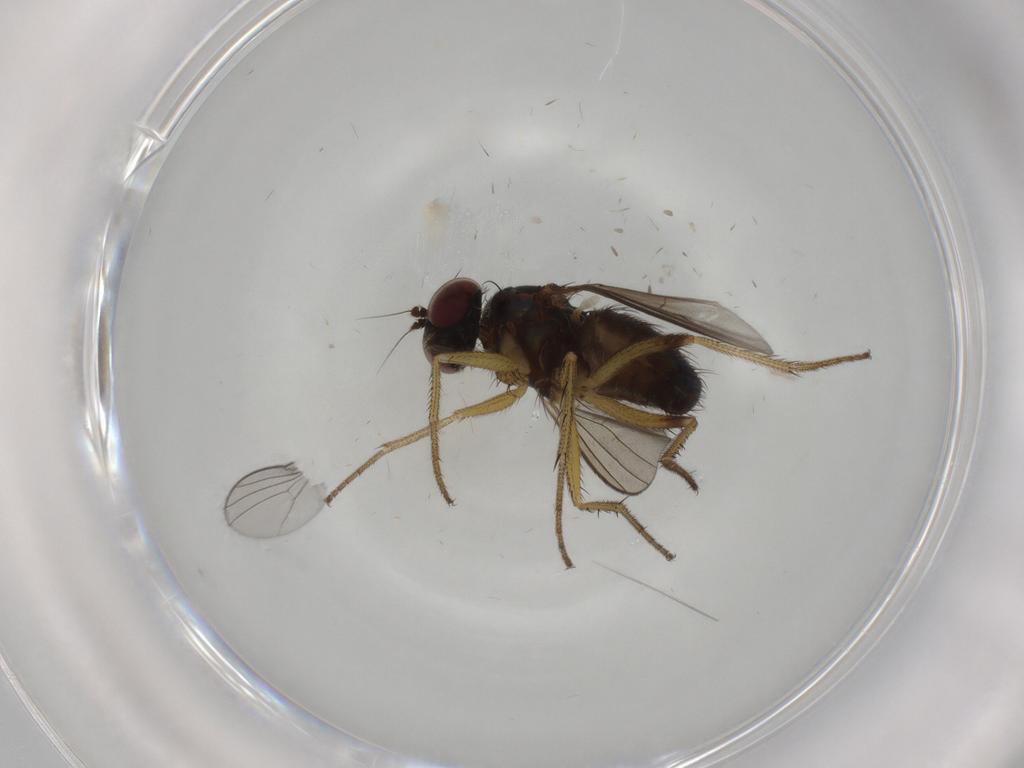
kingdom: Animalia
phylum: Arthropoda
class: Insecta
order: Diptera
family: Dolichopodidae
